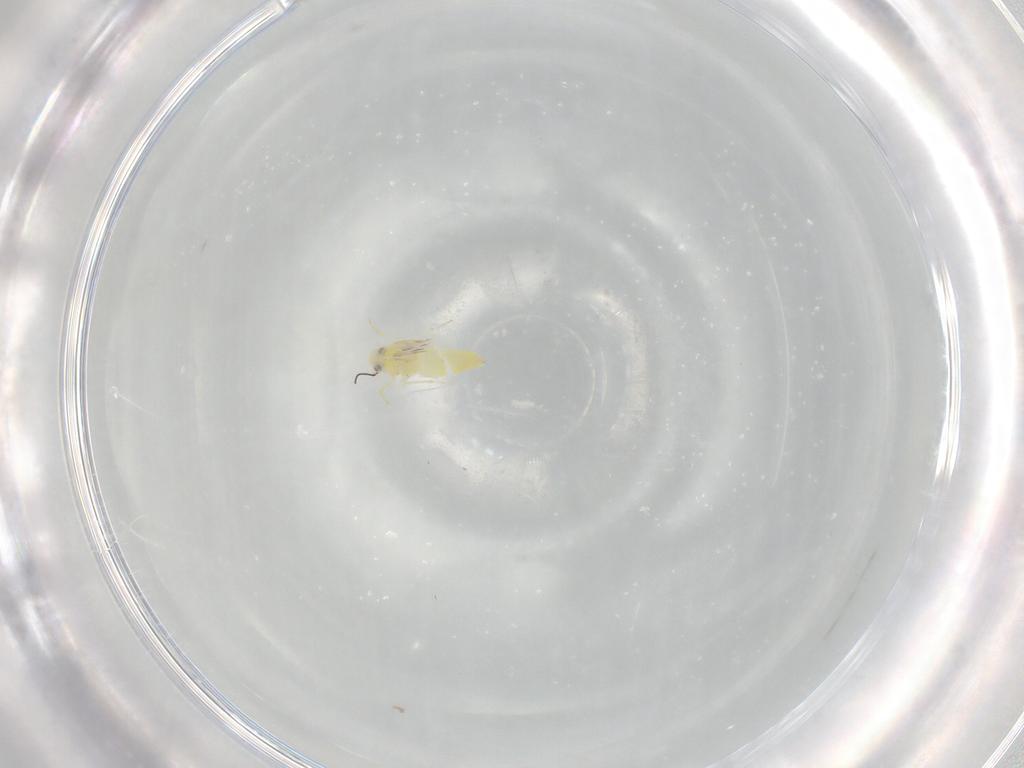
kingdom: Animalia
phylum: Arthropoda
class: Insecta
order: Hemiptera
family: Aleyrodidae
